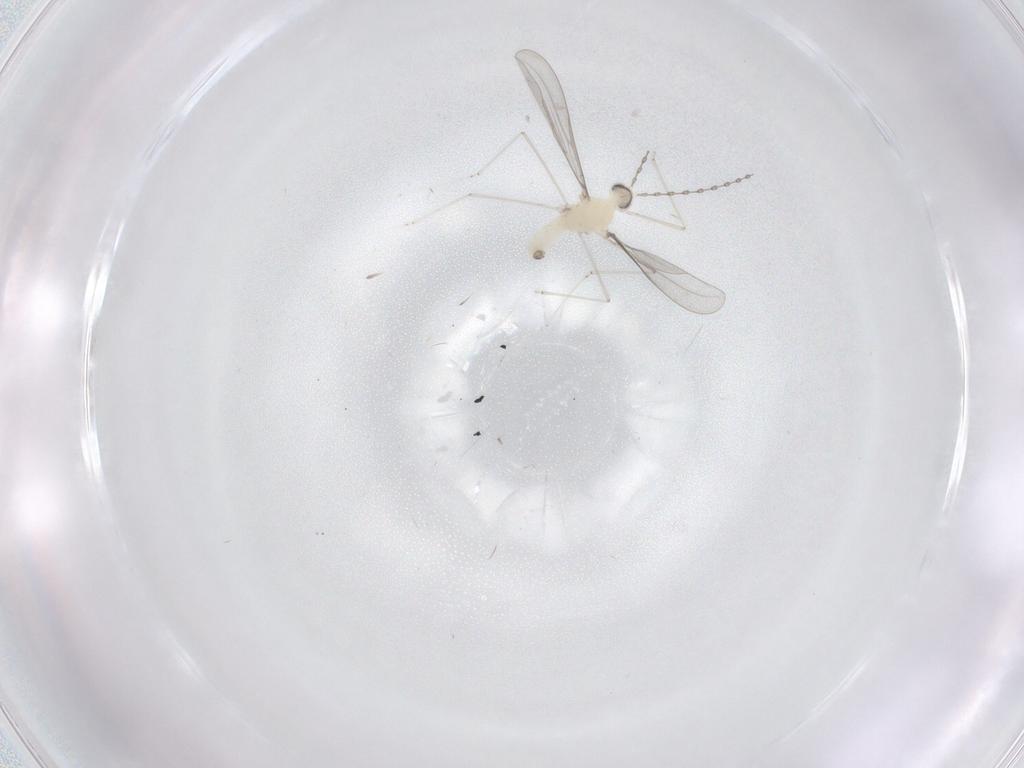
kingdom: Animalia
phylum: Arthropoda
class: Insecta
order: Diptera
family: Cecidomyiidae
